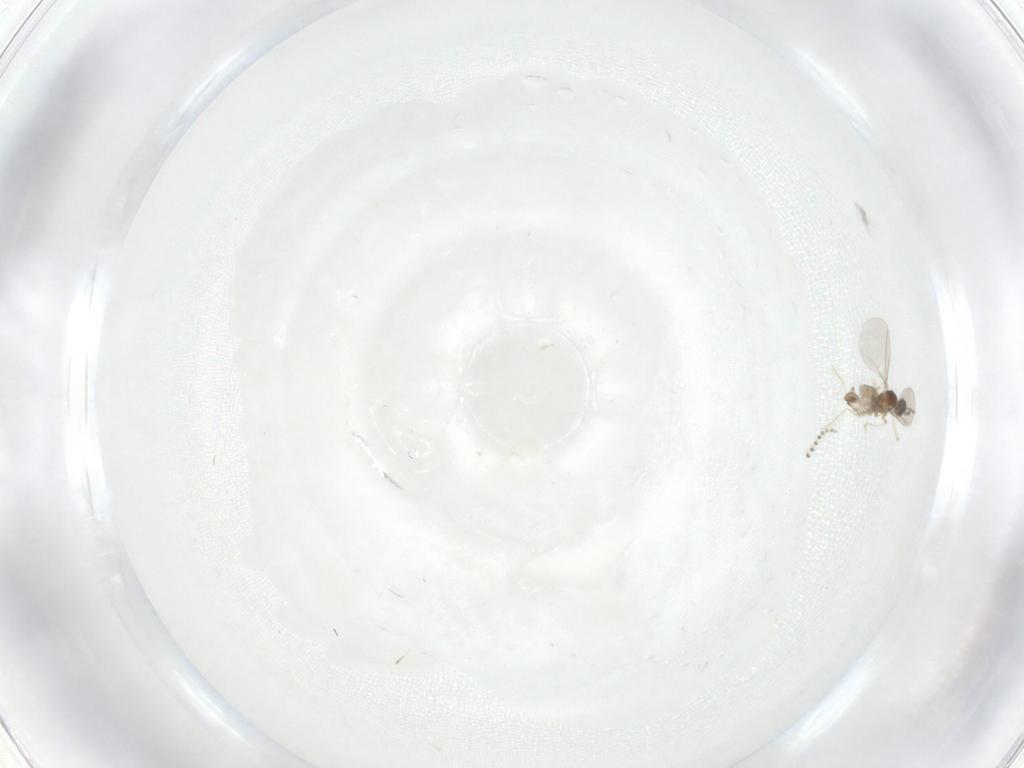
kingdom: Animalia
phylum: Arthropoda
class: Insecta
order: Diptera
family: Cecidomyiidae
